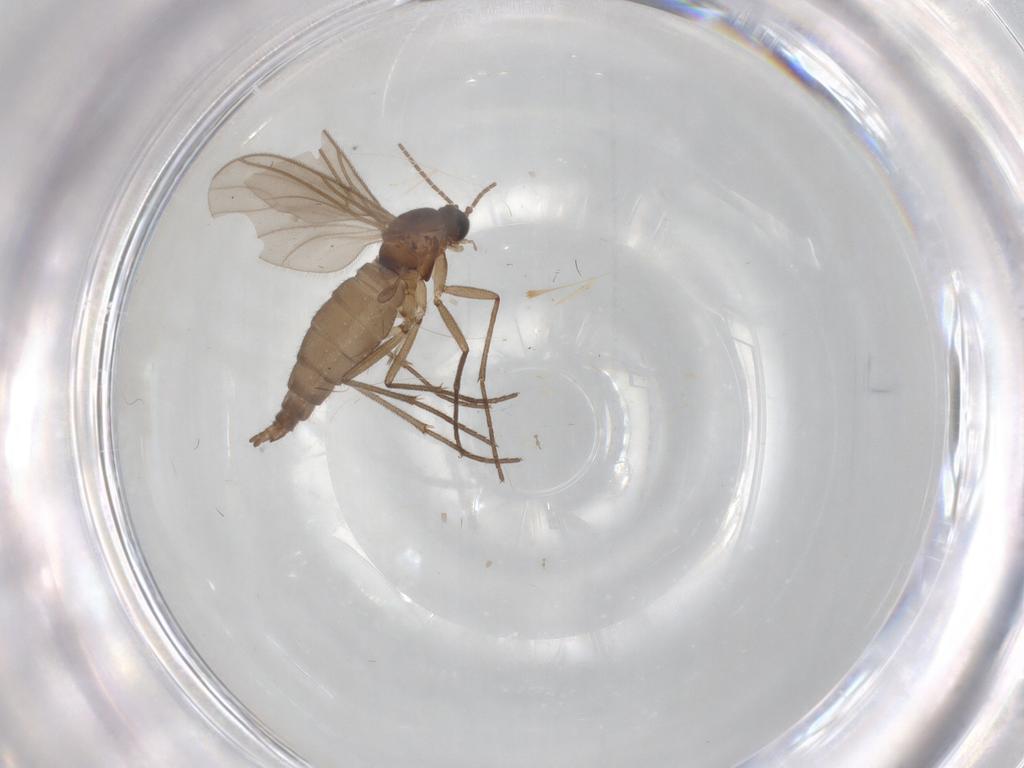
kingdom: Animalia
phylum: Arthropoda
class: Insecta
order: Diptera
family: Sciaridae
